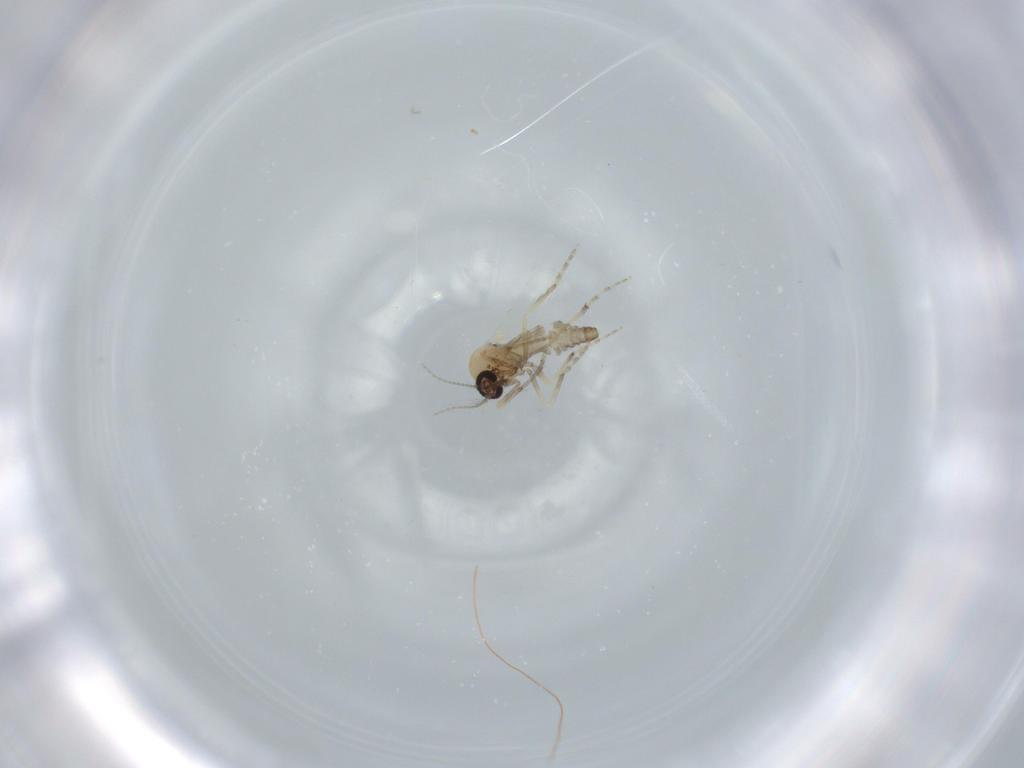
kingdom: Animalia
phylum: Arthropoda
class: Insecta
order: Diptera
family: Ceratopogonidae
